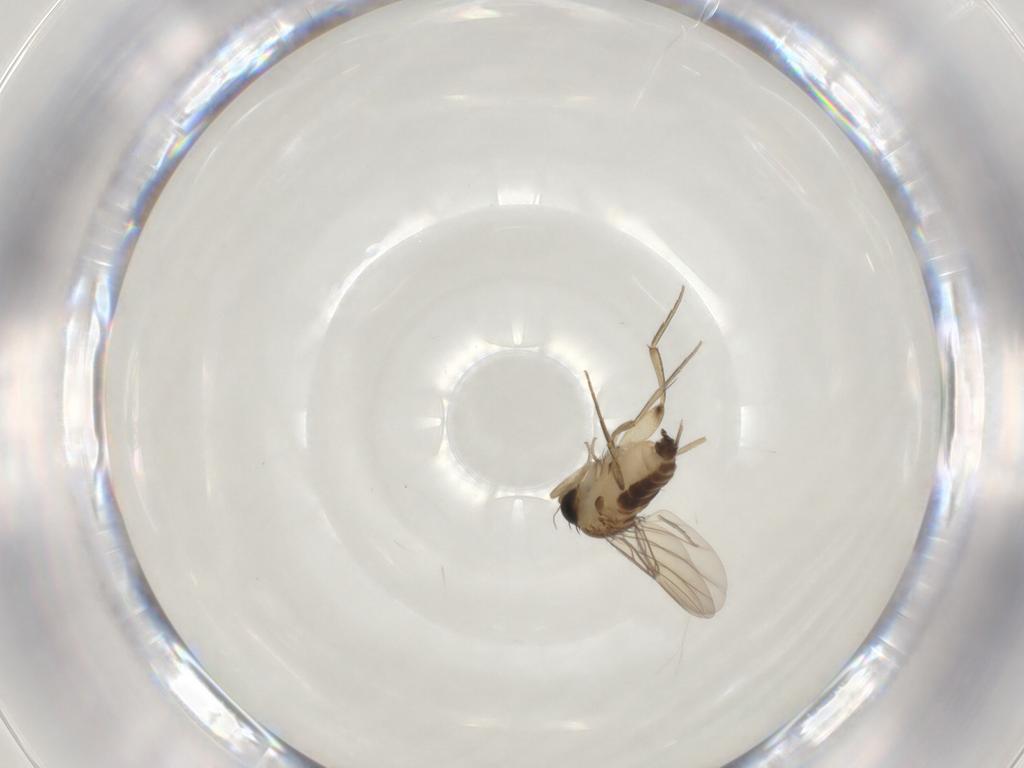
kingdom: Animalia
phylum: Arthropoda
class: Insecta
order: Diptera
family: Phoridae
